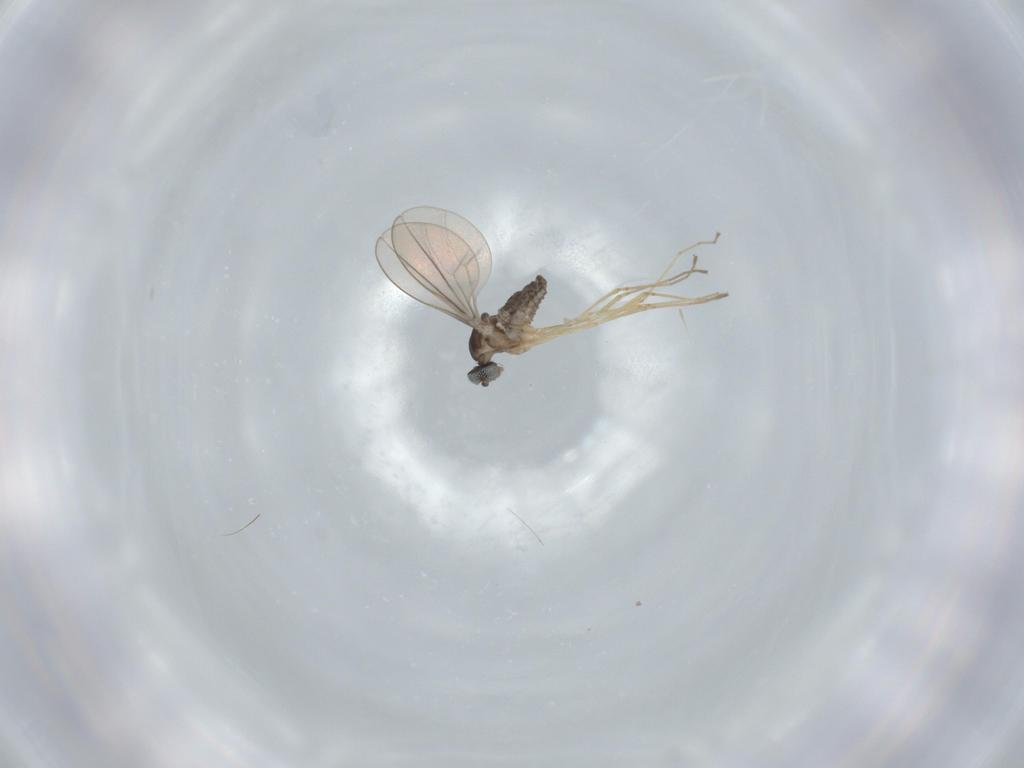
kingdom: Animalia
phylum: Arthropoda
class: Insecta
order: Diptera
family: Cecidomyiidae
